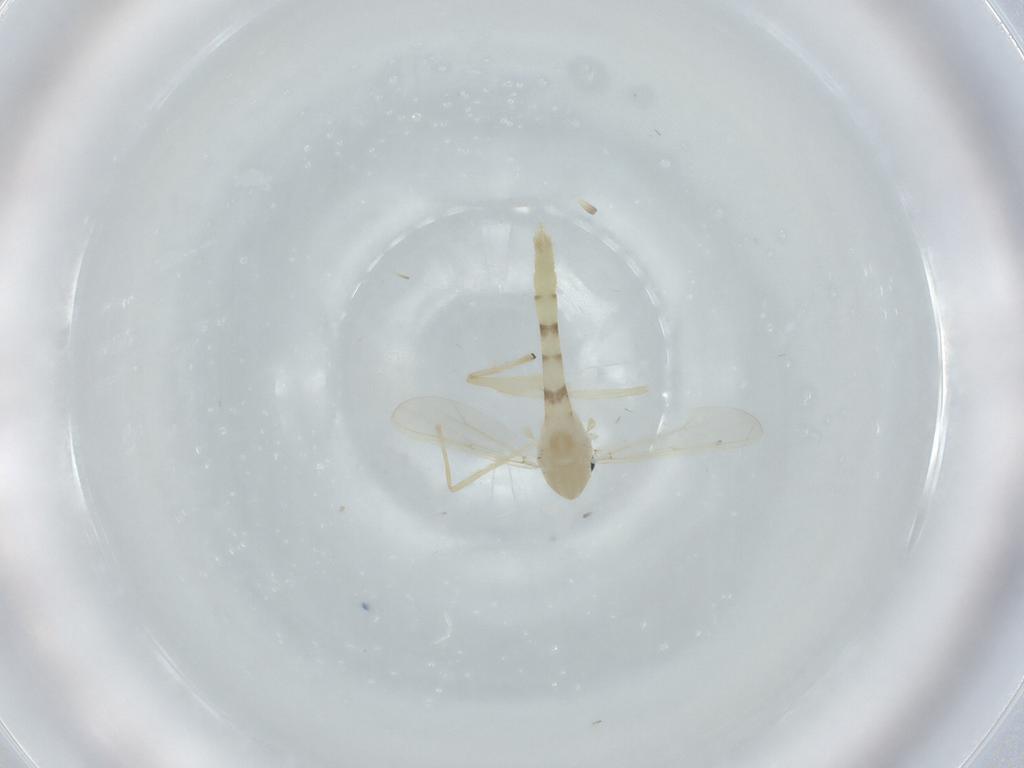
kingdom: Animalia
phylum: Arthropoda
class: Insecta
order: Diptera
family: Chironomidae
